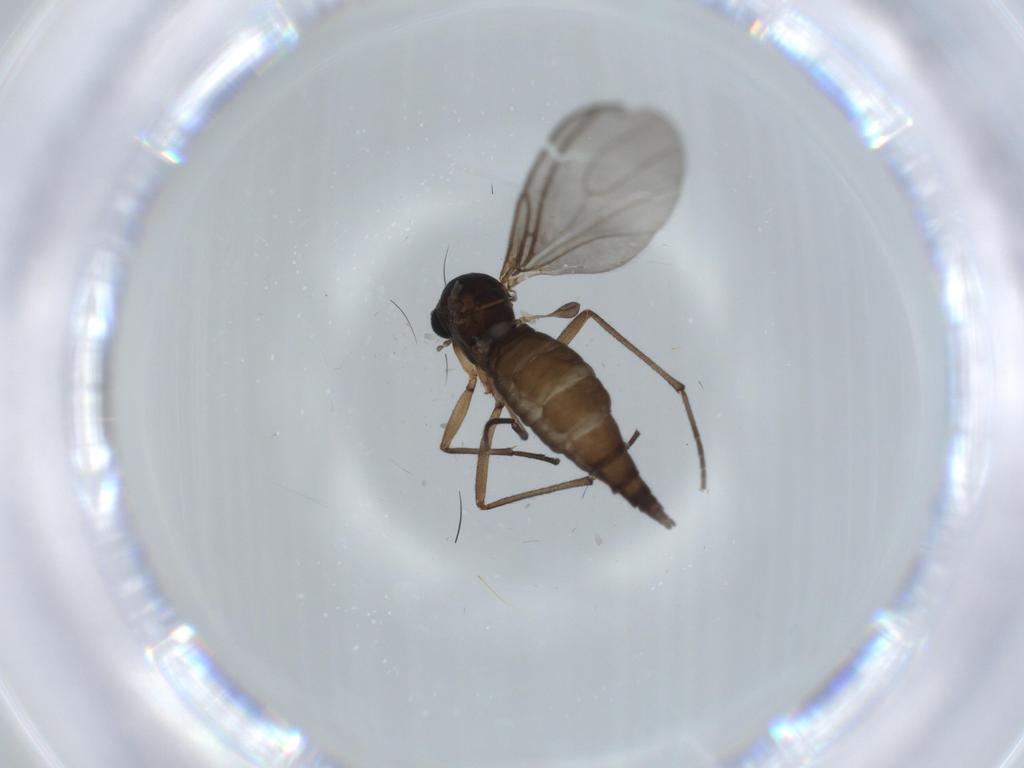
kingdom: Animalia
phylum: Arthropoda
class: Insecta
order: Diptera
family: Sciaridae
